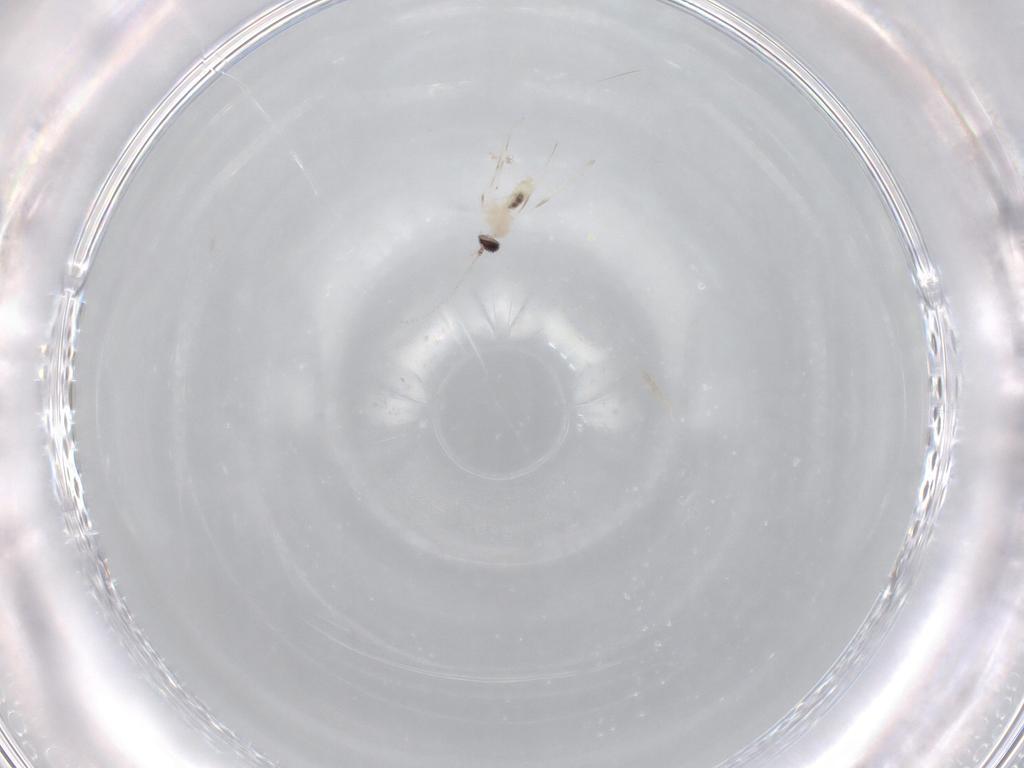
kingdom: Animalia
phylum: Arthropoda
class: Insecta
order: Diptera
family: Cecidomyiidae
